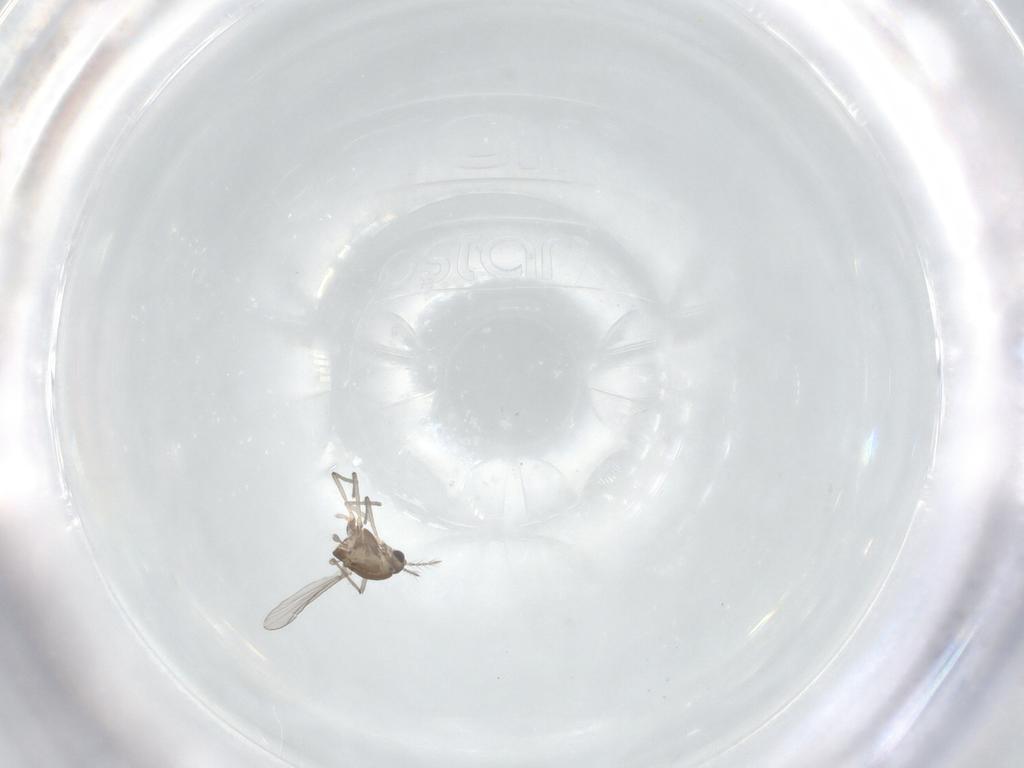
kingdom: Animalia
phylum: Arthropoda
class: Insecta
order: Diptera
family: Chironomidae
